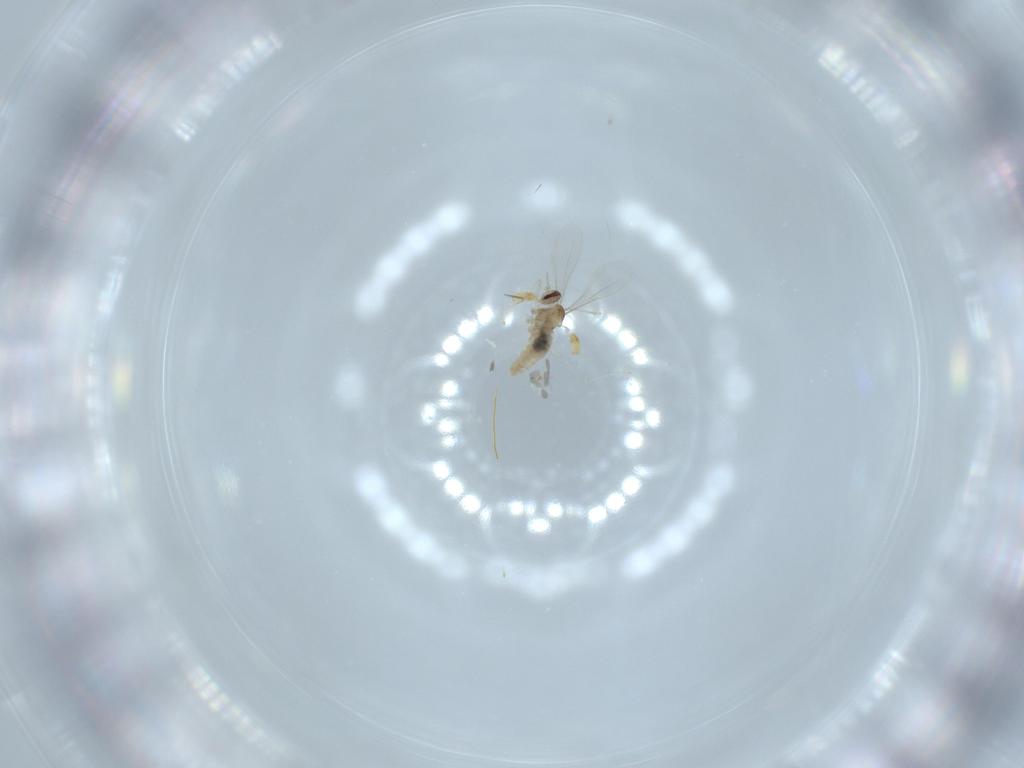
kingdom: Animalia
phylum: Arthropoda
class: Insecta
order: Diptera
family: Cecidomyiidae
